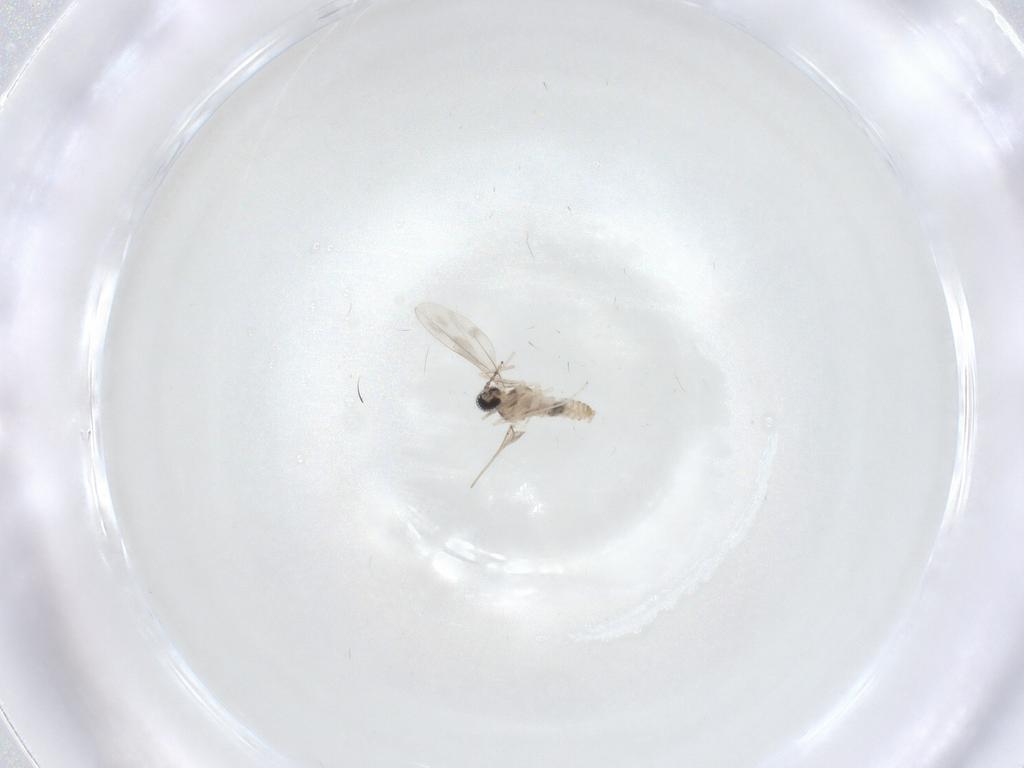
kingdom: Animalia
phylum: Arthropoda
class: Insecta
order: Diptera
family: Cecidomyiidae
